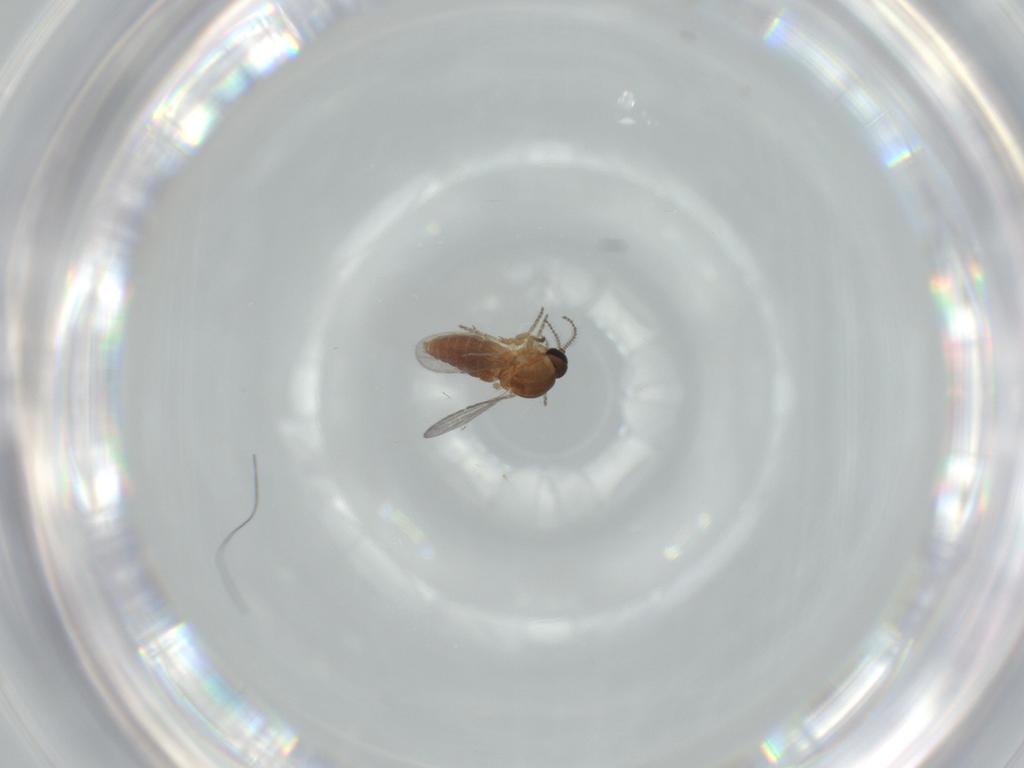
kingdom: Animalia
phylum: Arthropoda
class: Insecta
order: Diptera
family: Ceratopogonidae
